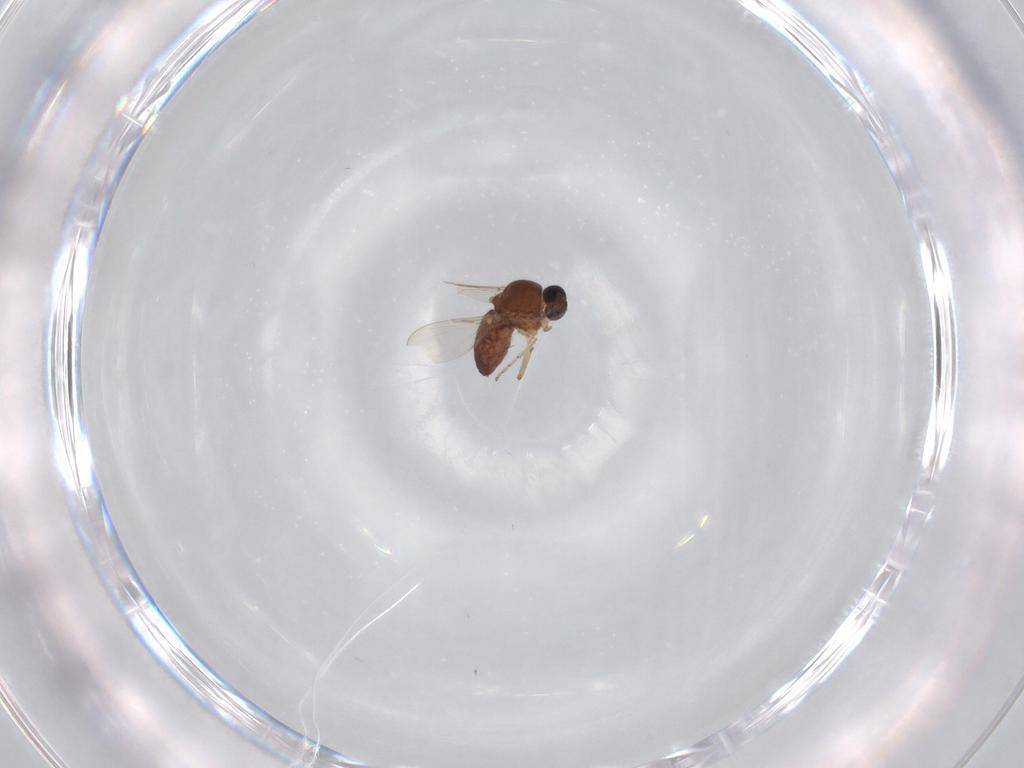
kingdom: Animalia
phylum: Arthropoda
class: Insecta
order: Diptera
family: Ceratopogonidae
